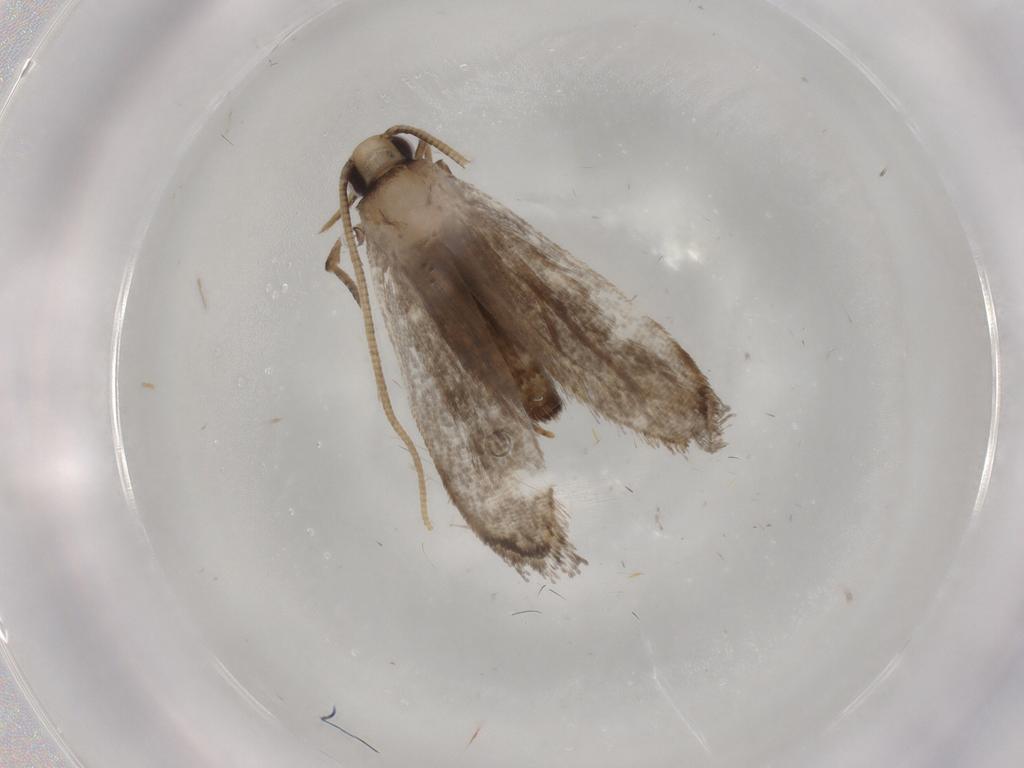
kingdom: Animalia
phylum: Arthropoda
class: Insecta
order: Lepidoptera
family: Tineidae
